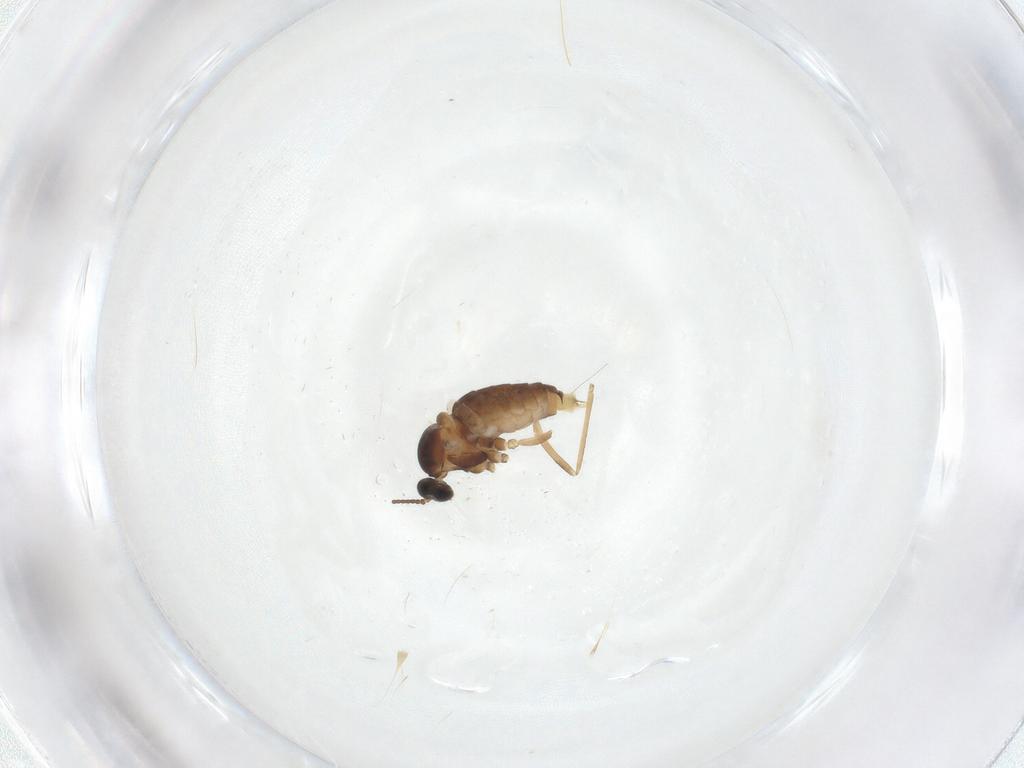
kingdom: Animalia
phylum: Arthropoda
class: Insecta
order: Diptera
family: Cecidomyiidae
